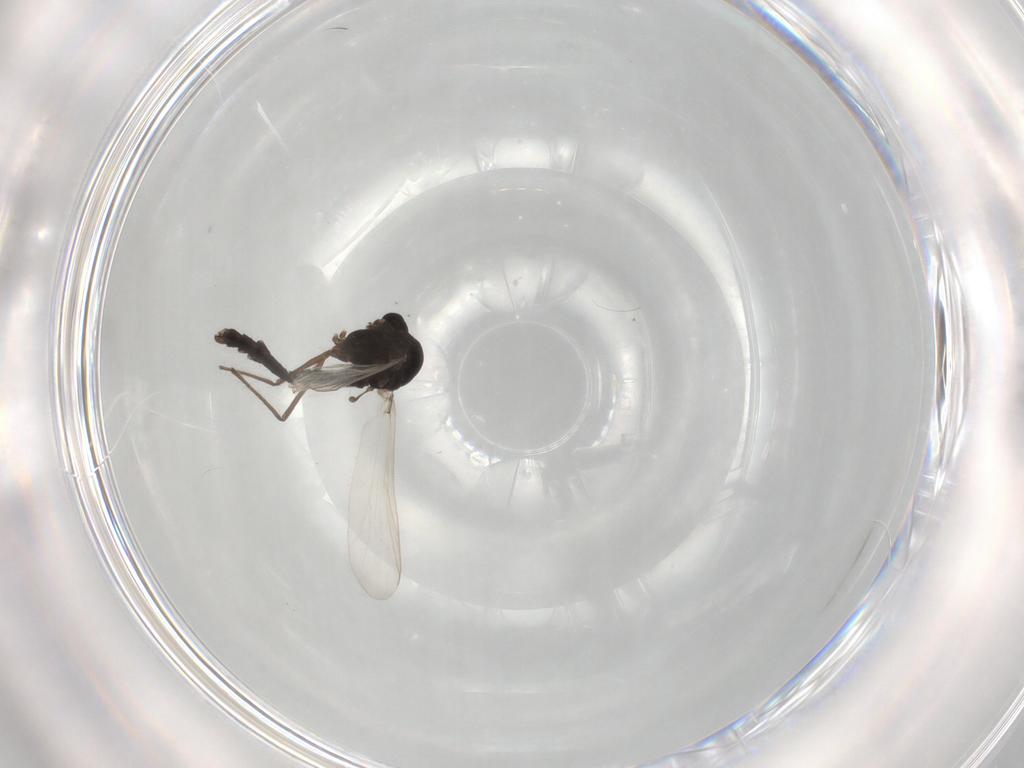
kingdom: Animalia
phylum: Arthropoda
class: Insecta
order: Diptera
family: Chironomidae
